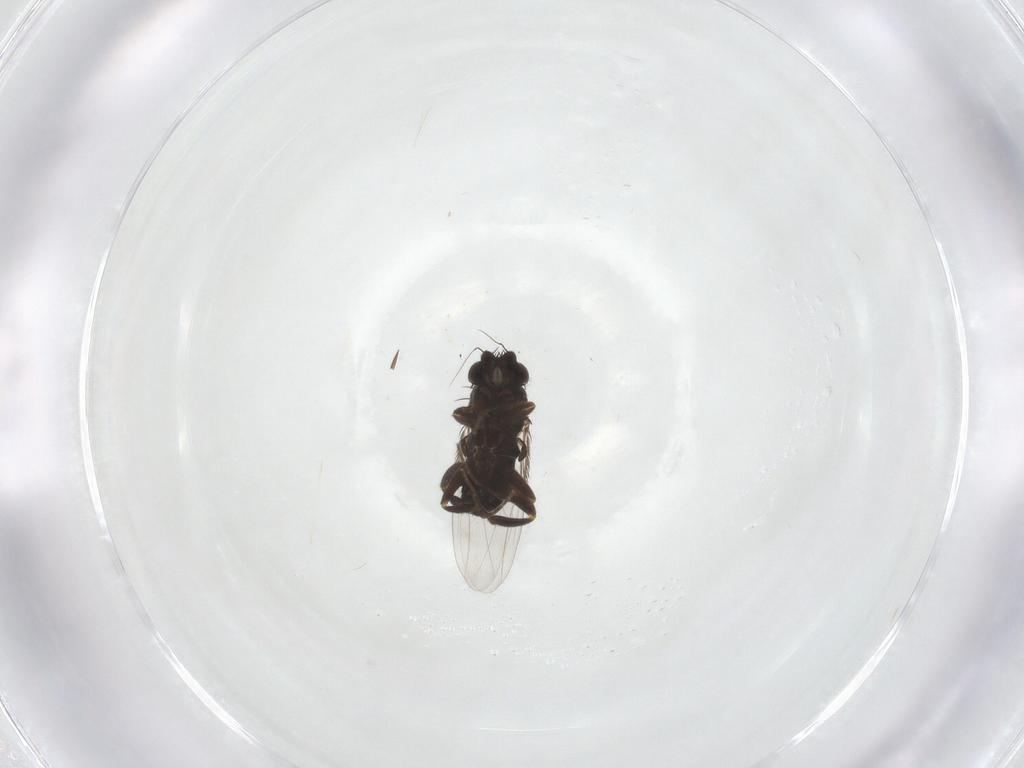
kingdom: Animalia
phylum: Arthropoda
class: Insecta
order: Diptera
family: Phoridae
